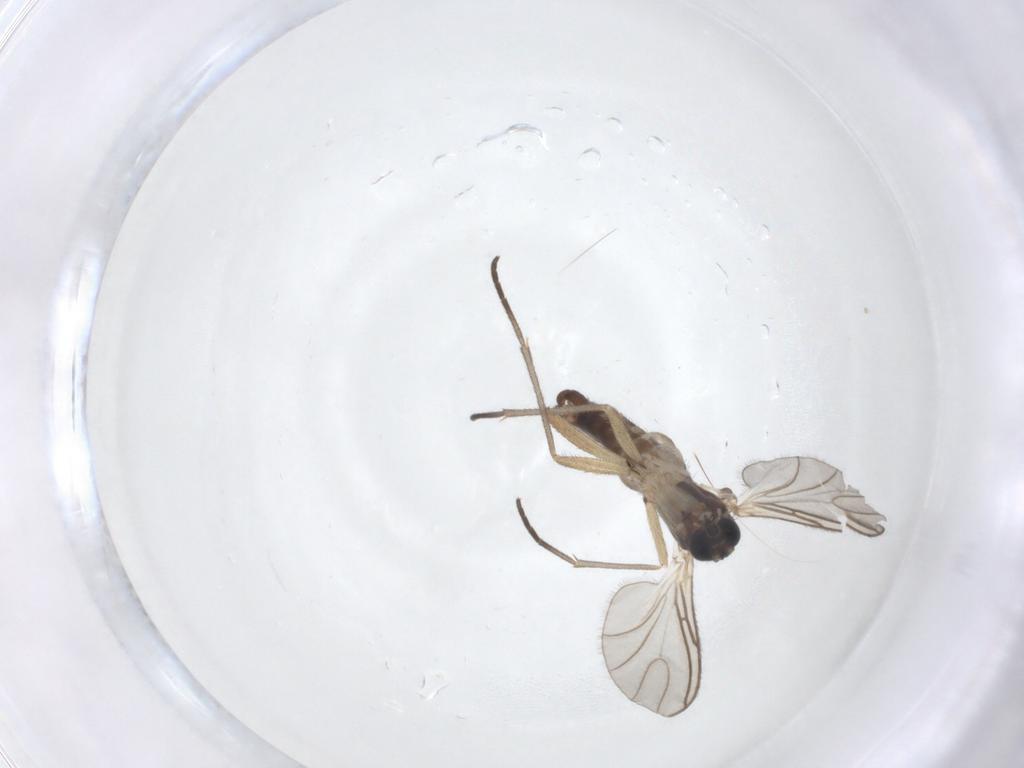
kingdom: Animalia
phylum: Arthropoda
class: Insecta
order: Diptera
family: Sciaridae
